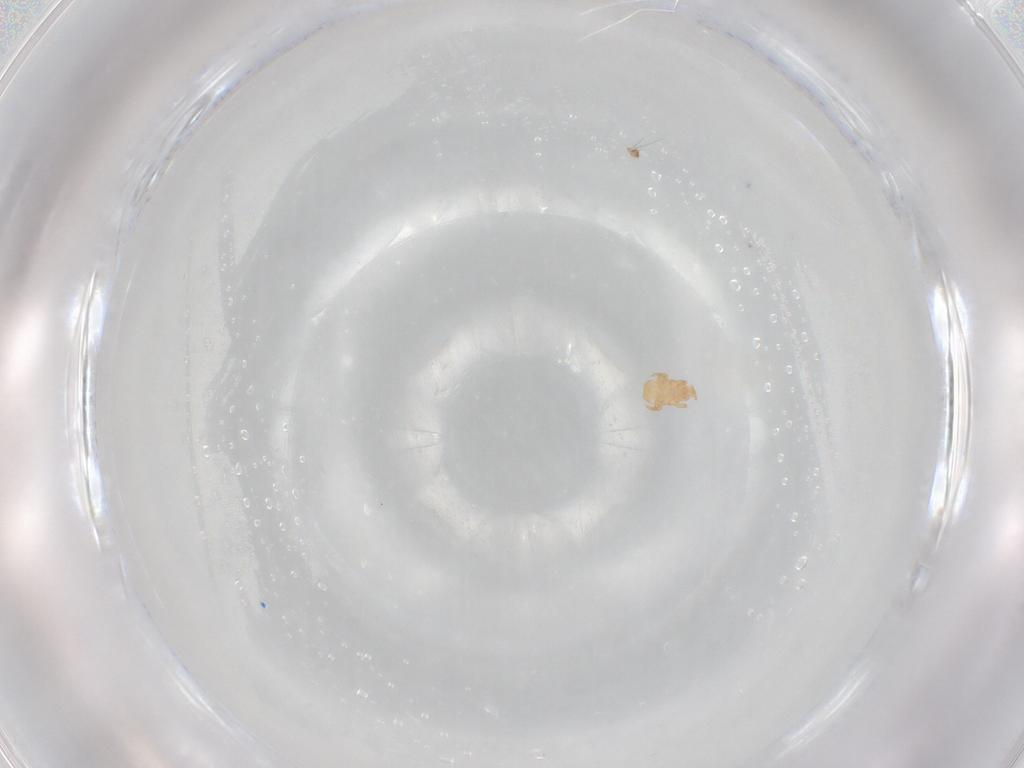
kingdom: Animalia
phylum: Arthropoda
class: Arachnida
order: Mesostigmata
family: Digamasellidae
